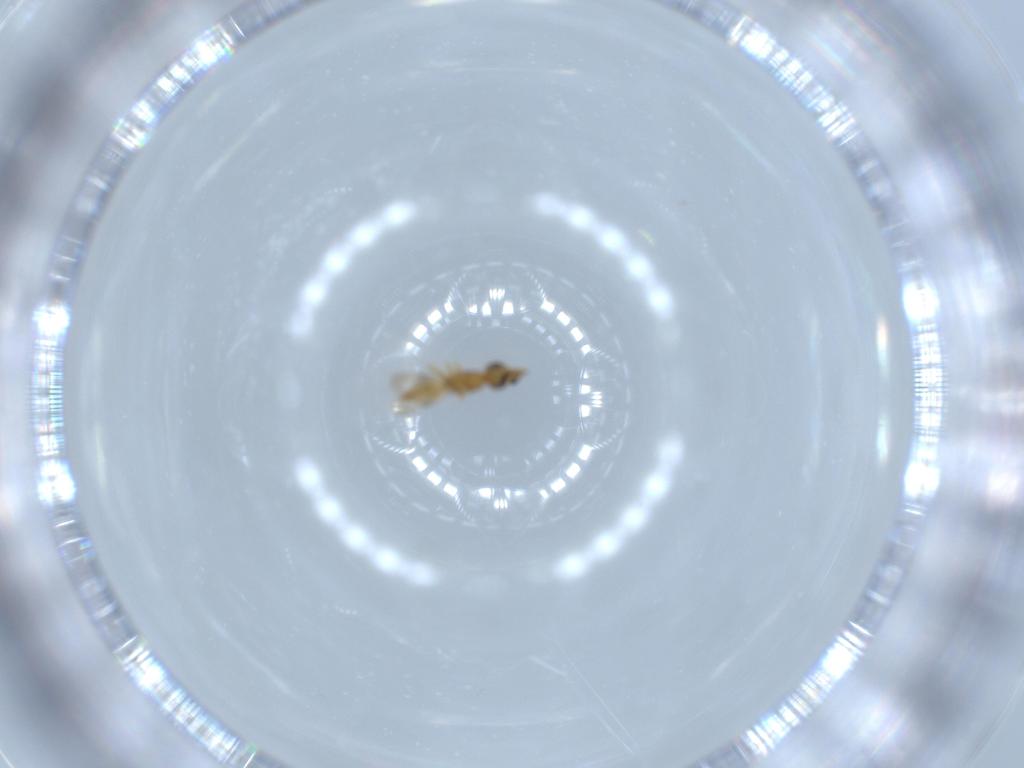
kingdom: Animalia
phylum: Arthropoda
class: Insecta
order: Hymenoptera
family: Ceraphronidae
